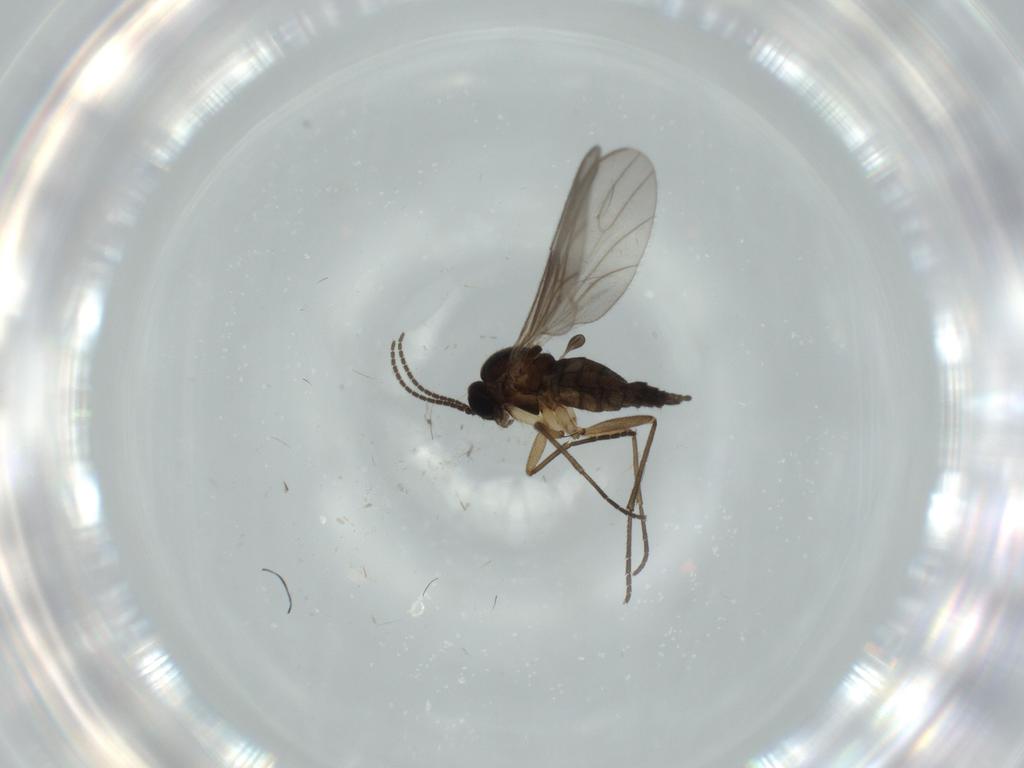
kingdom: Animalia
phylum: Arthropoda
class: Insecta
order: Diptera
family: Sciaridae
